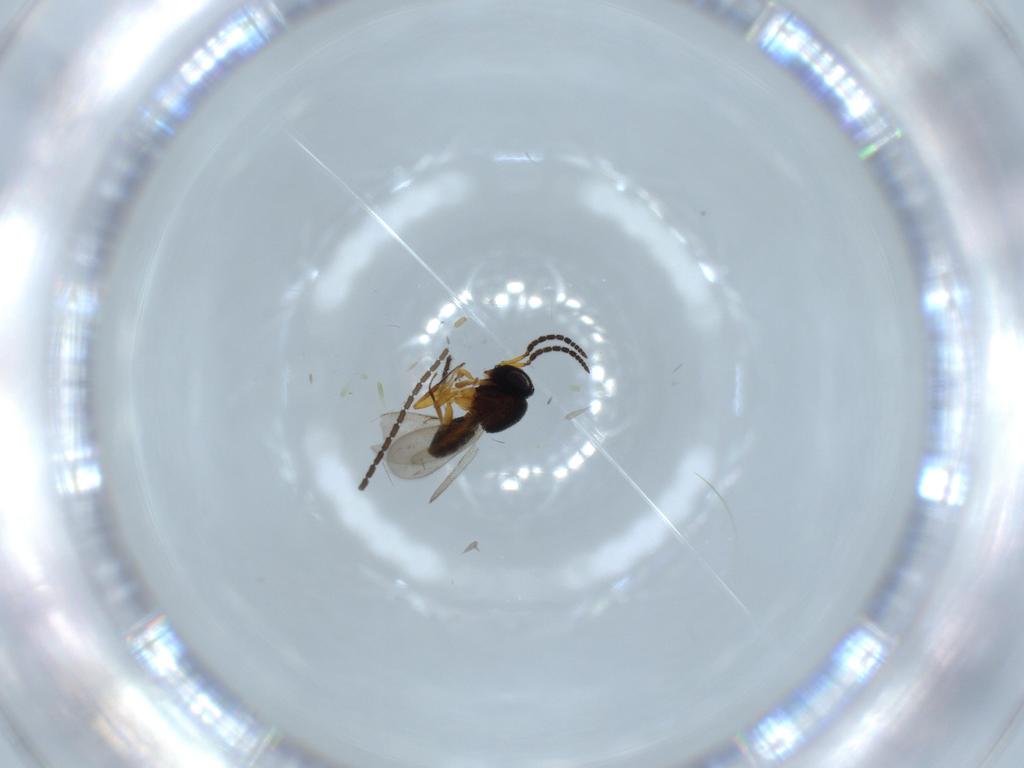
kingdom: Animalia
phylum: Arthropoda
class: Insecta
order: Hymenoptera
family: Scelionidae
